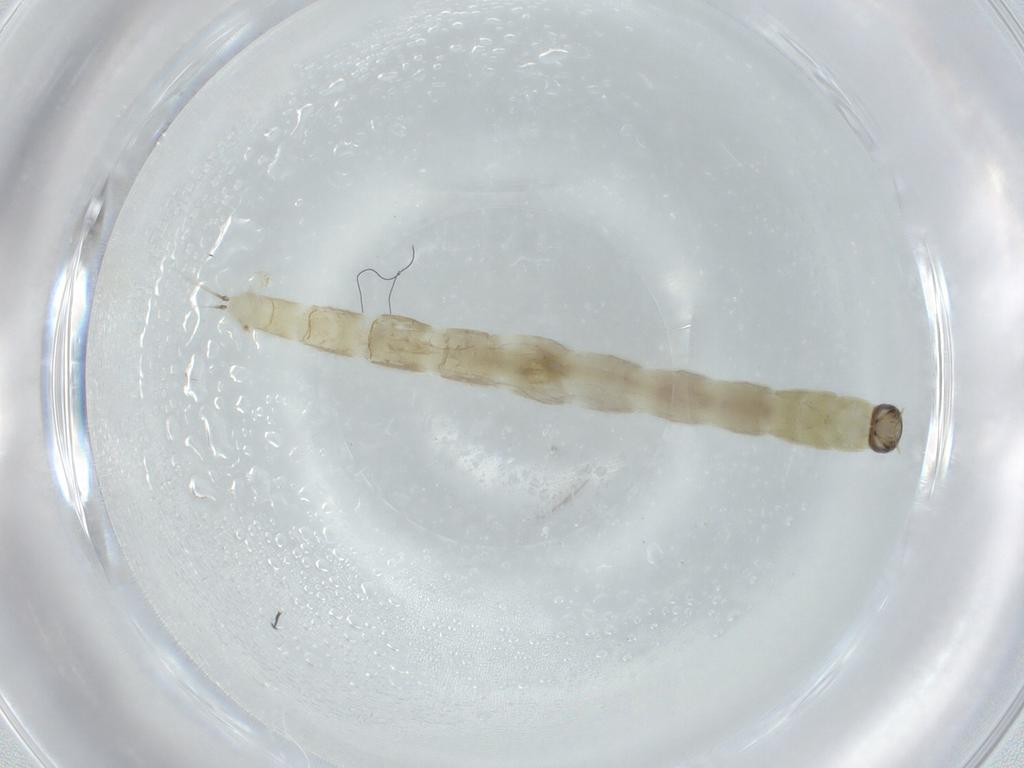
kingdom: Animalia
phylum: Arthropoda
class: Insecta
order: Diptera
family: Chironomidae
